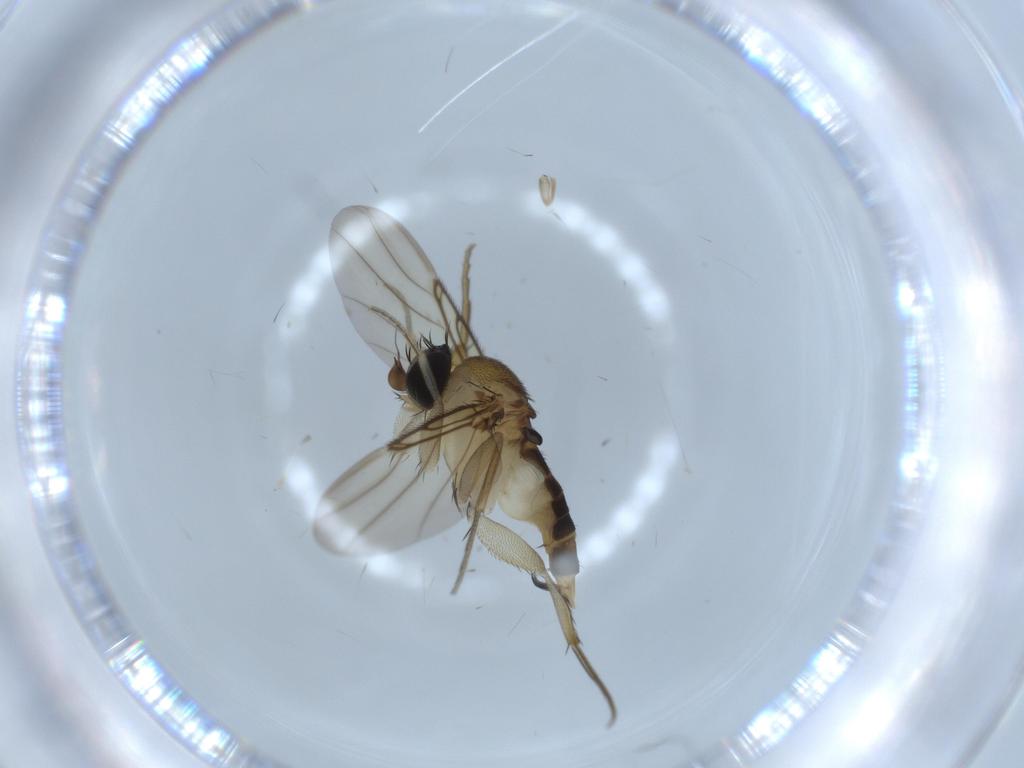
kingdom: Animalia
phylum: Arthropoda
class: Insecta
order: Diptera
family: Phoridae
